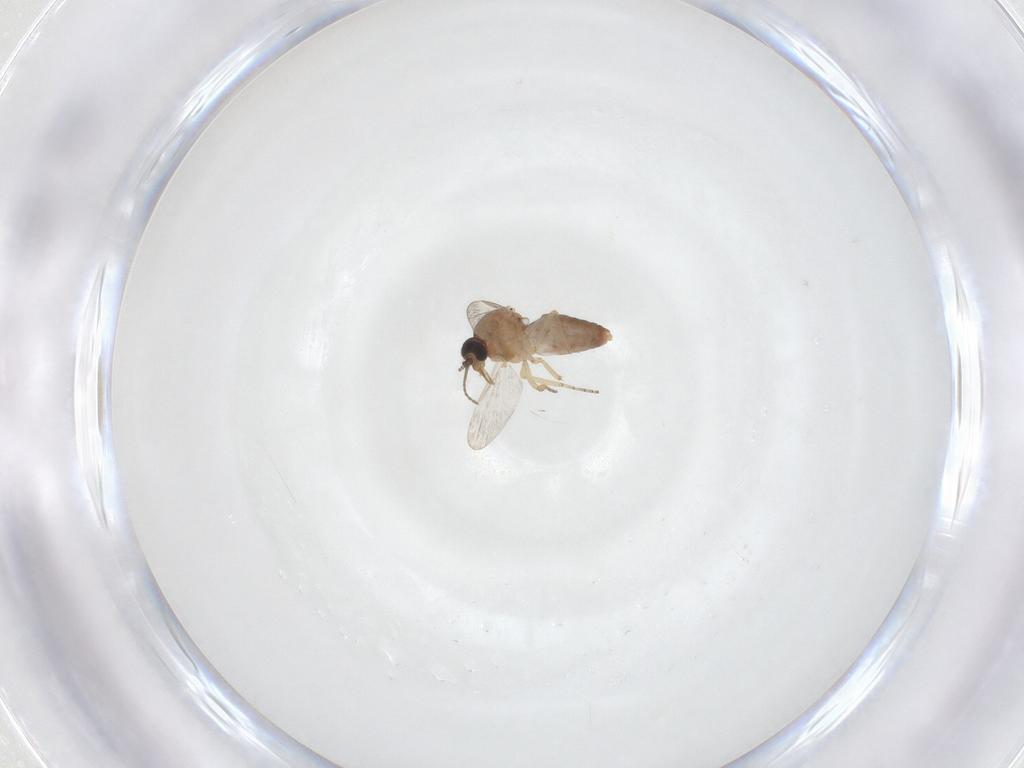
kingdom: Animalia
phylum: Arthropoda
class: Insecta
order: Diptera
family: Ceratopogonidae
